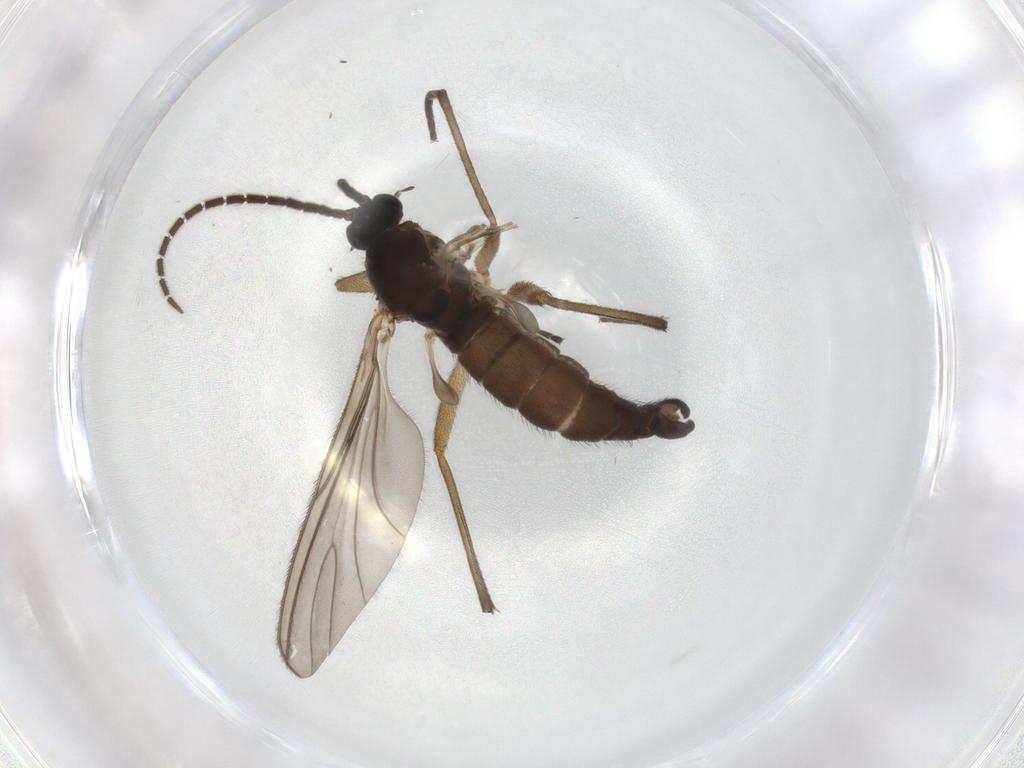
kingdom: Animalia
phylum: Arthropoda
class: Insecta
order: Diptera
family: Sciaridae
